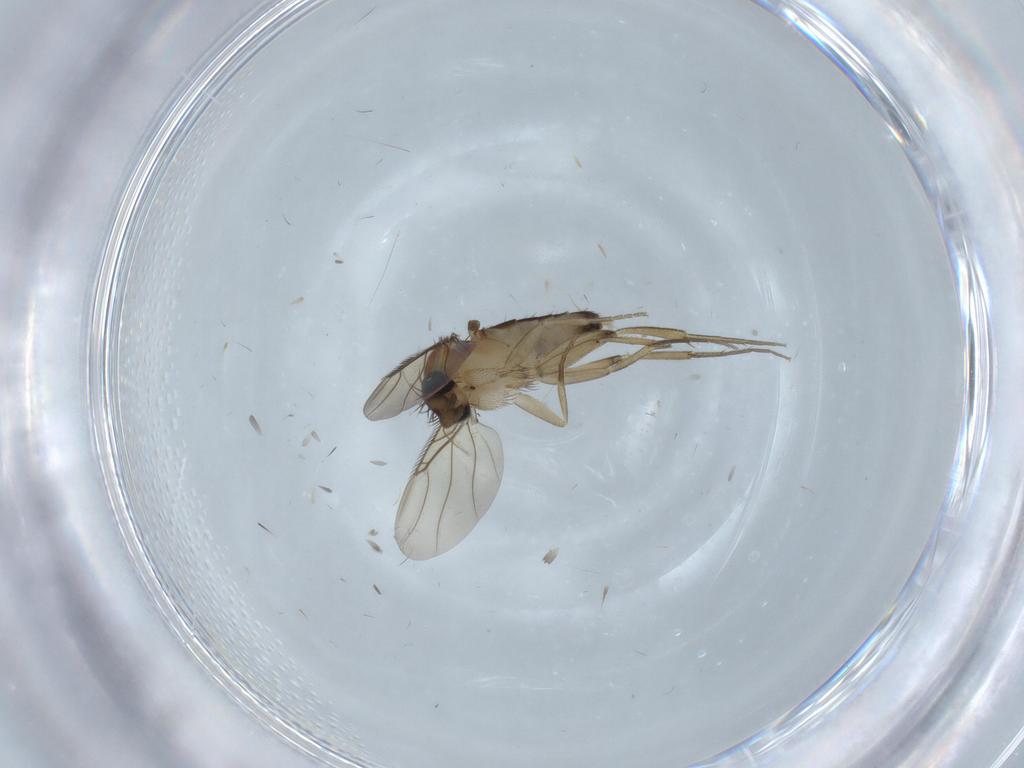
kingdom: Animalia
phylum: Arthropoda
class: Insecta
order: Diptera
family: Phoridae
